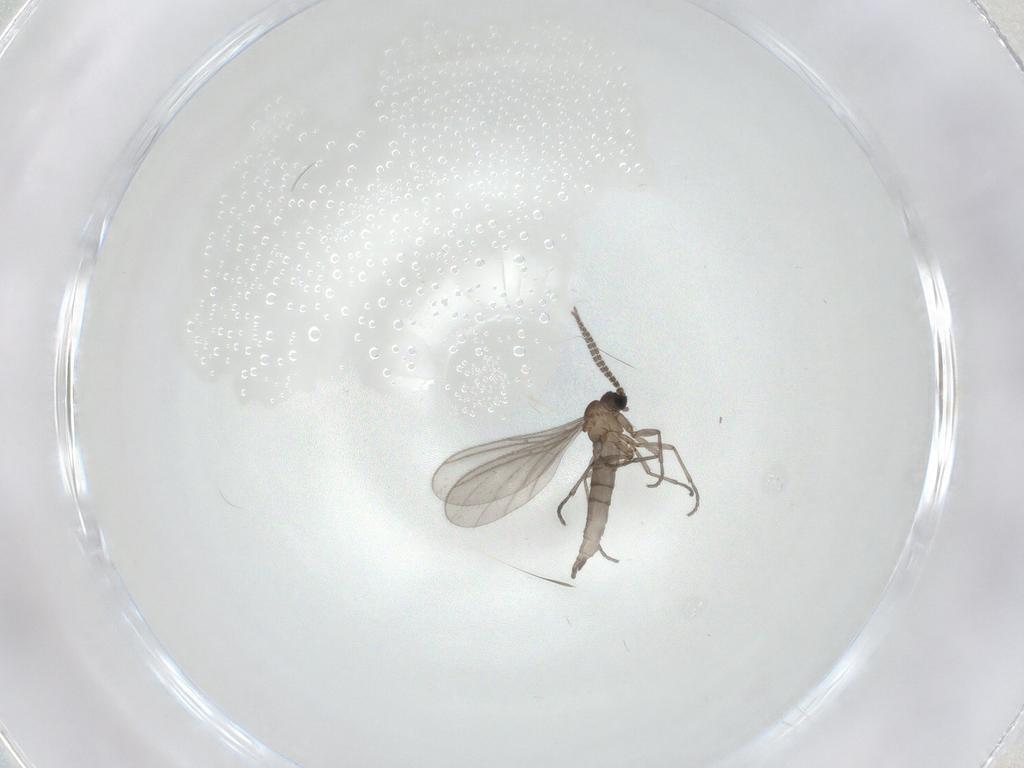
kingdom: Animalia
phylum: Arthropoda
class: Insecta
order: Diptera
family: Sciaridae
